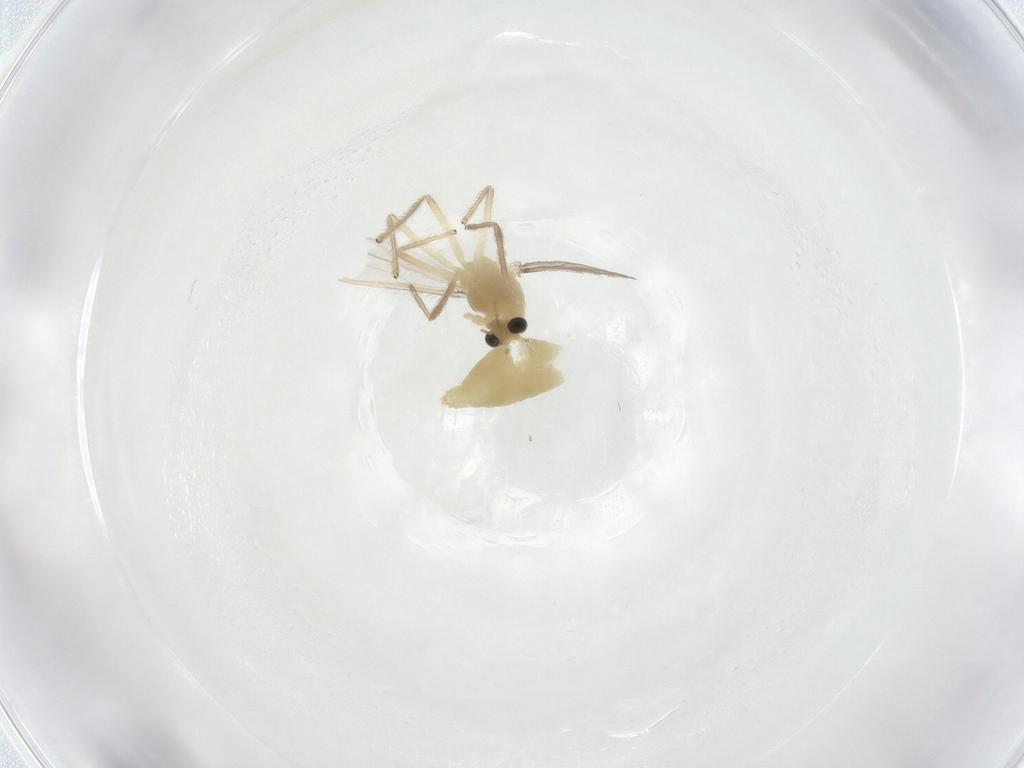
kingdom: Animalia
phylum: Arthropoda
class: Insecta
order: Diptera
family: Chironomidae
